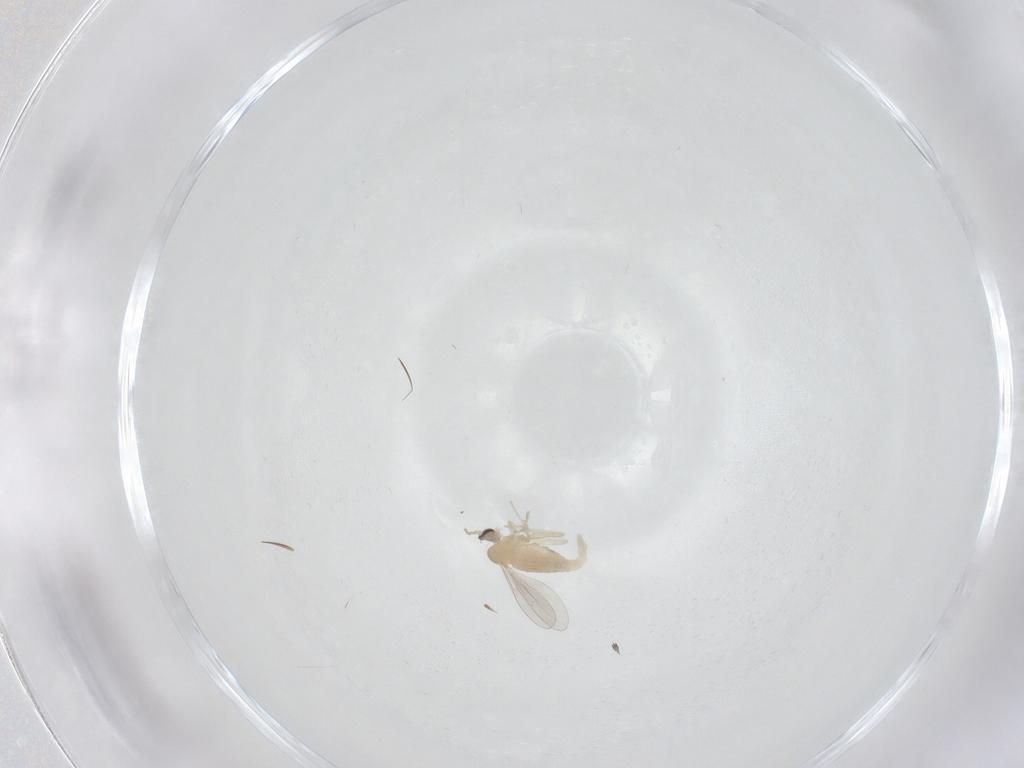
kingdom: Animalia
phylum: Arthropoda
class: Insecta
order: Diptera
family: Cecidomyiidae
